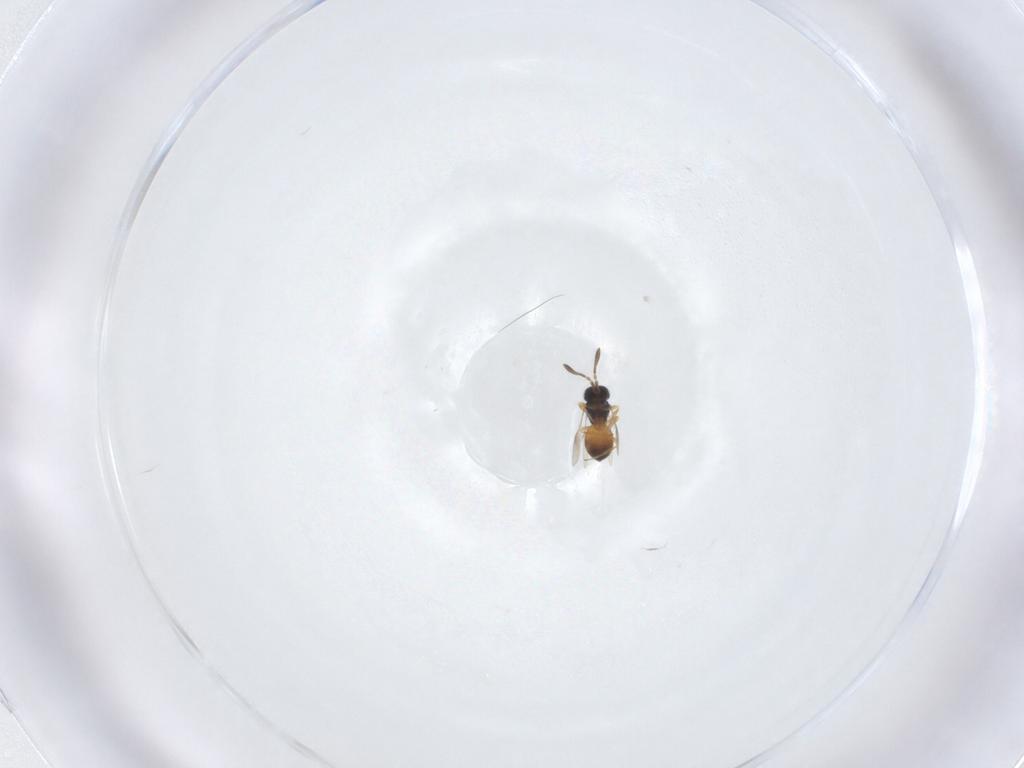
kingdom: Animalia
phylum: Arthropoda
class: Insecta
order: Hymenoptera
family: Scelionidae
